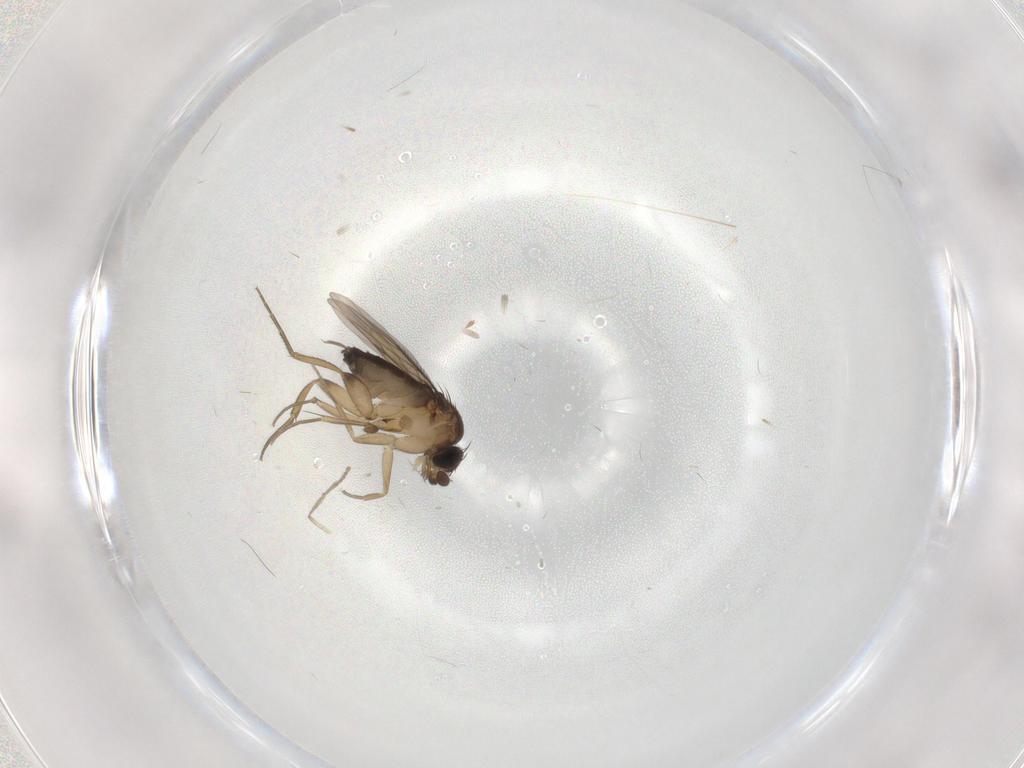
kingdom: Animalia
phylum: Arthropoda
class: Insecta
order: Diptera
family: Phoridae
